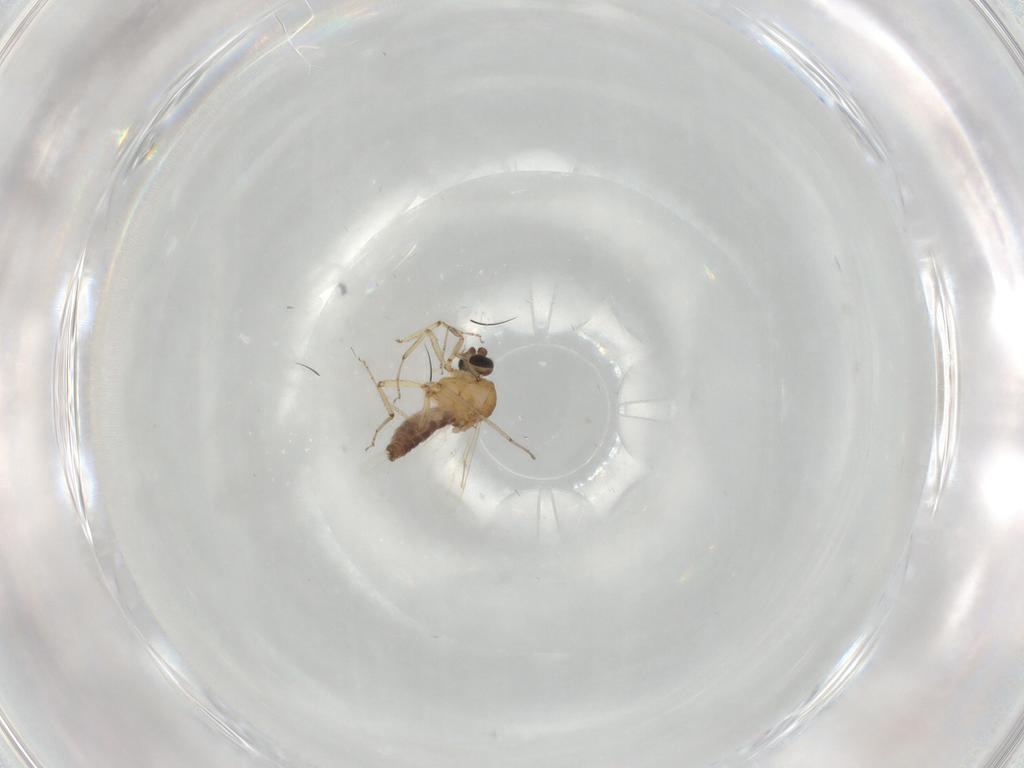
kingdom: Animalia
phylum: Arthropoda
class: Insecta
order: Diptera
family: Ceratopogonidae
